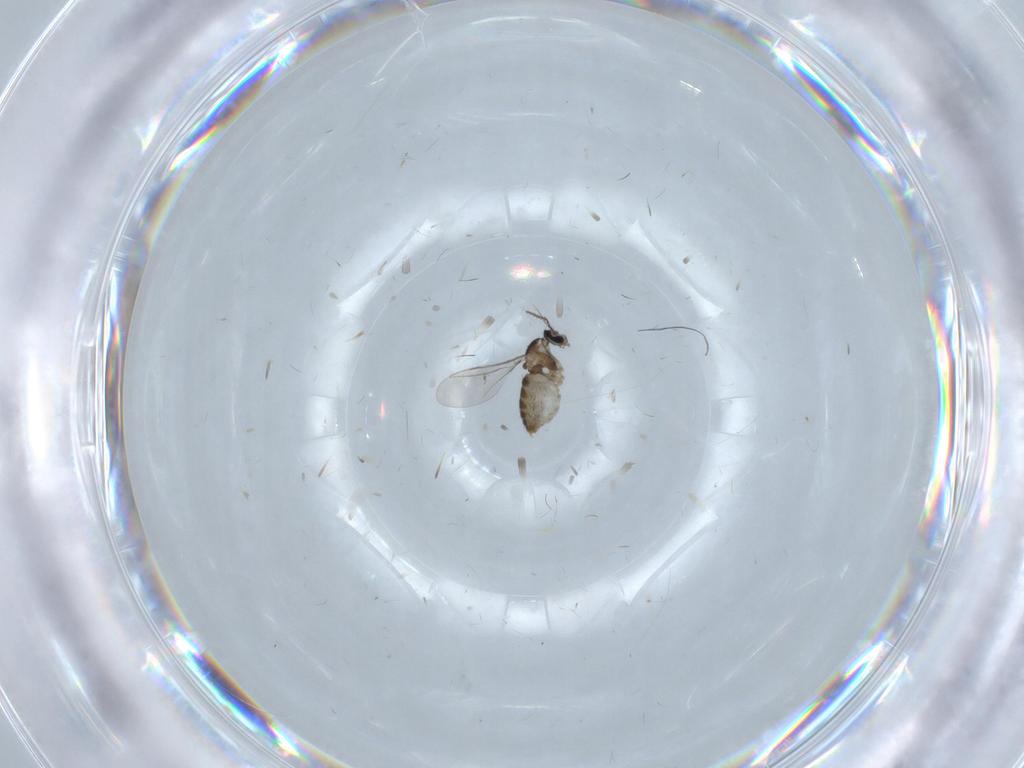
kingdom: Animalia
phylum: Arthropoda
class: Insecta
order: Diptera
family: Cecidomyiidae
